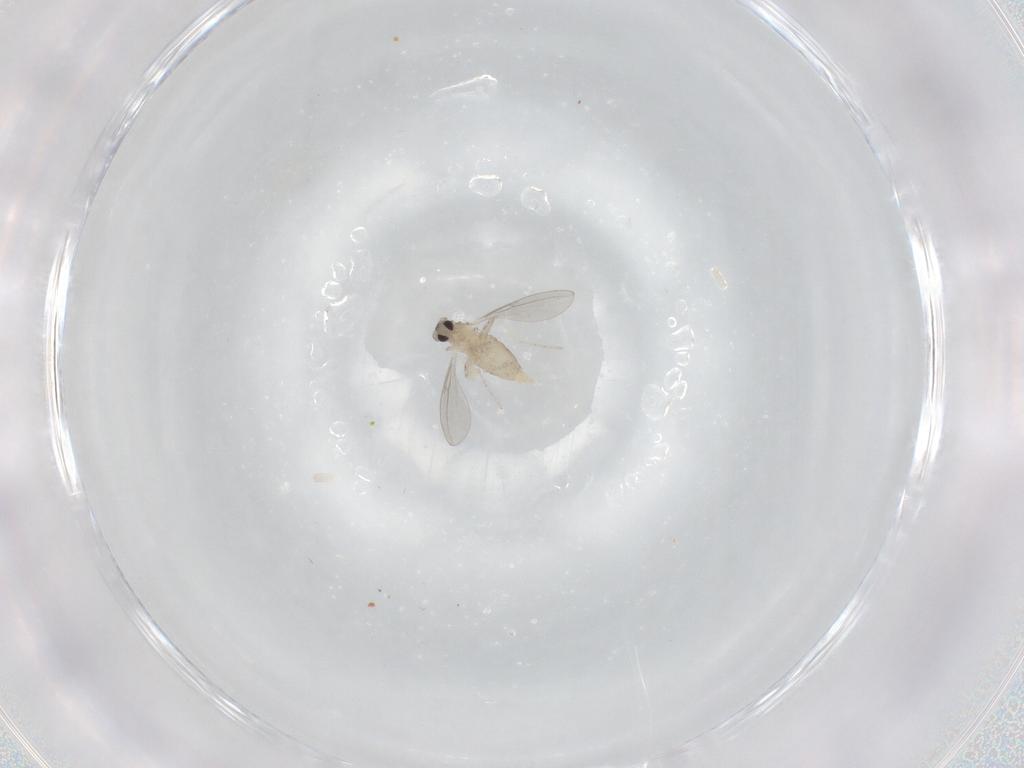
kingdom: Animalia
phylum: Arthropoda
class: Insecta
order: Diptera
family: Cecidomyiidae
